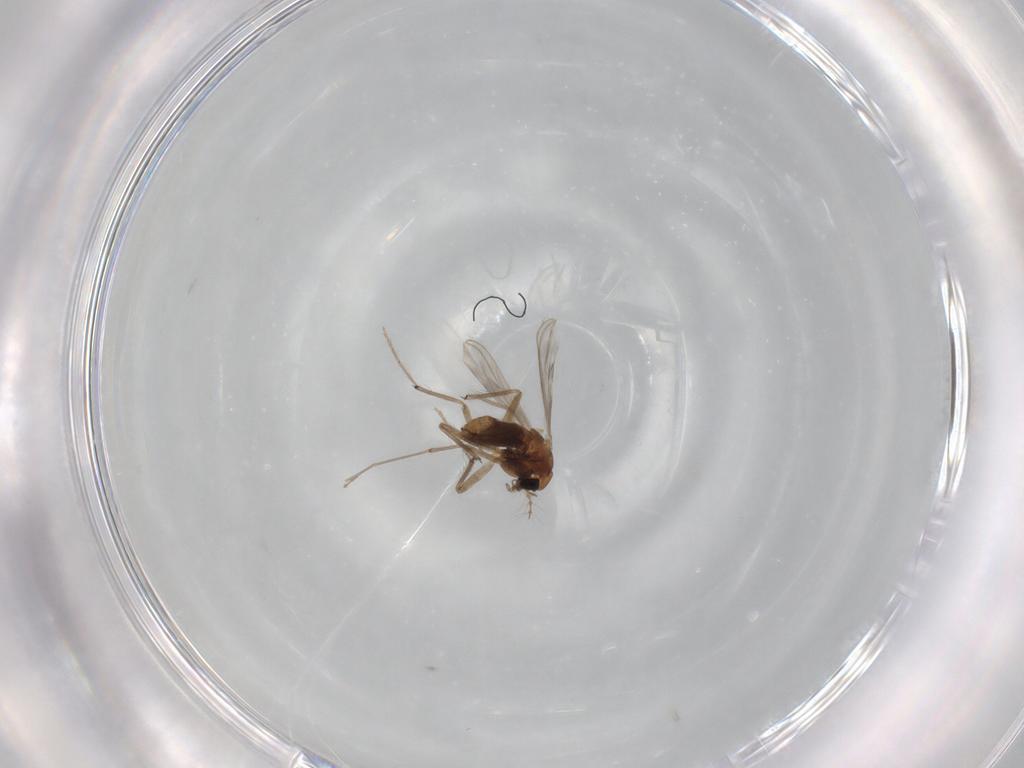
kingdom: Animalia
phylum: Arthropoda
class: Insecta
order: Diptera
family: Chironomidae
